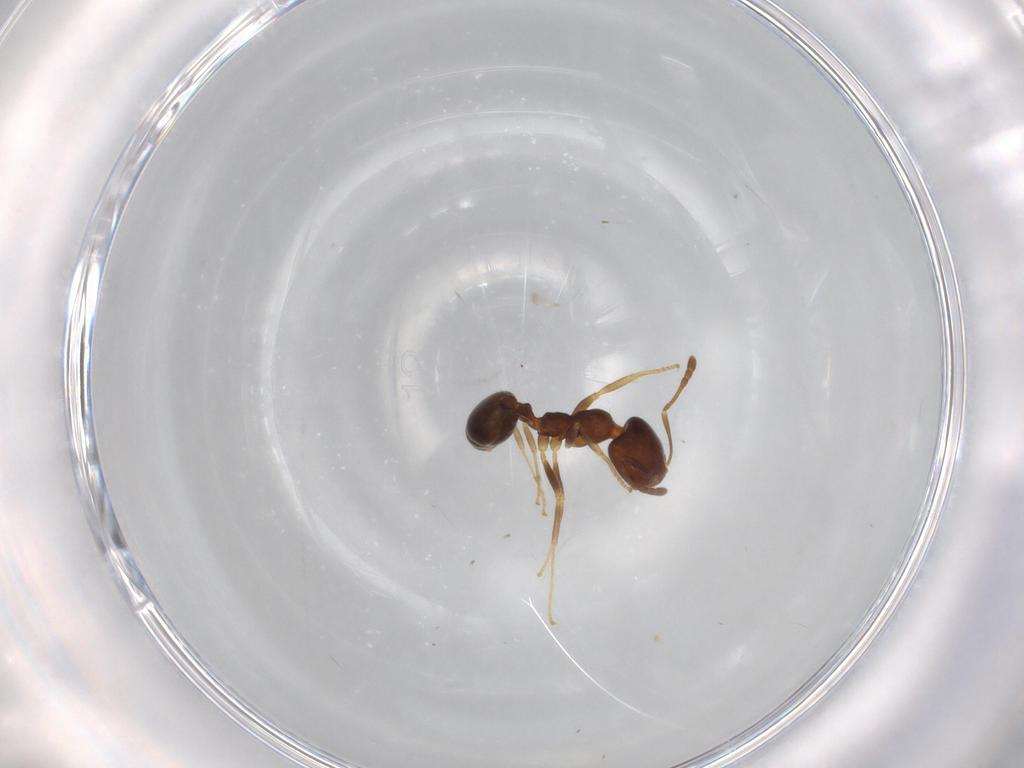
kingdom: Animalia
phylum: Arthropoda
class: Insecta
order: Hymenoptera
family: Formicidae
